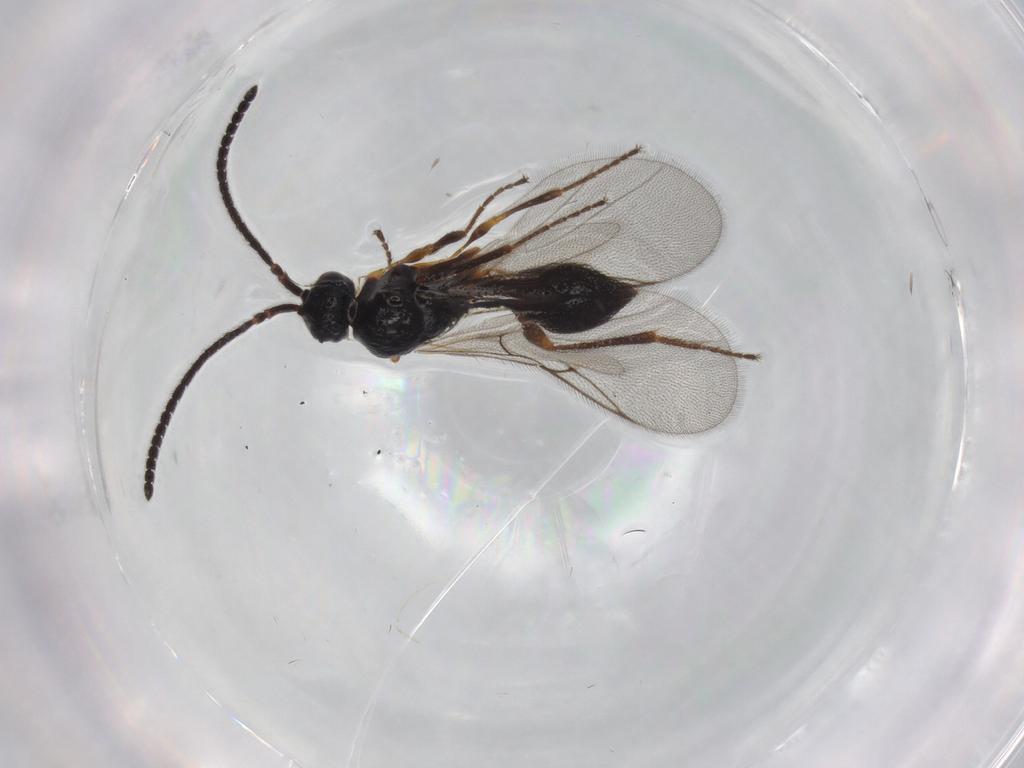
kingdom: Animalia
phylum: Arthropoda
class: Insecta
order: Hymenoptera
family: Diapriidae
